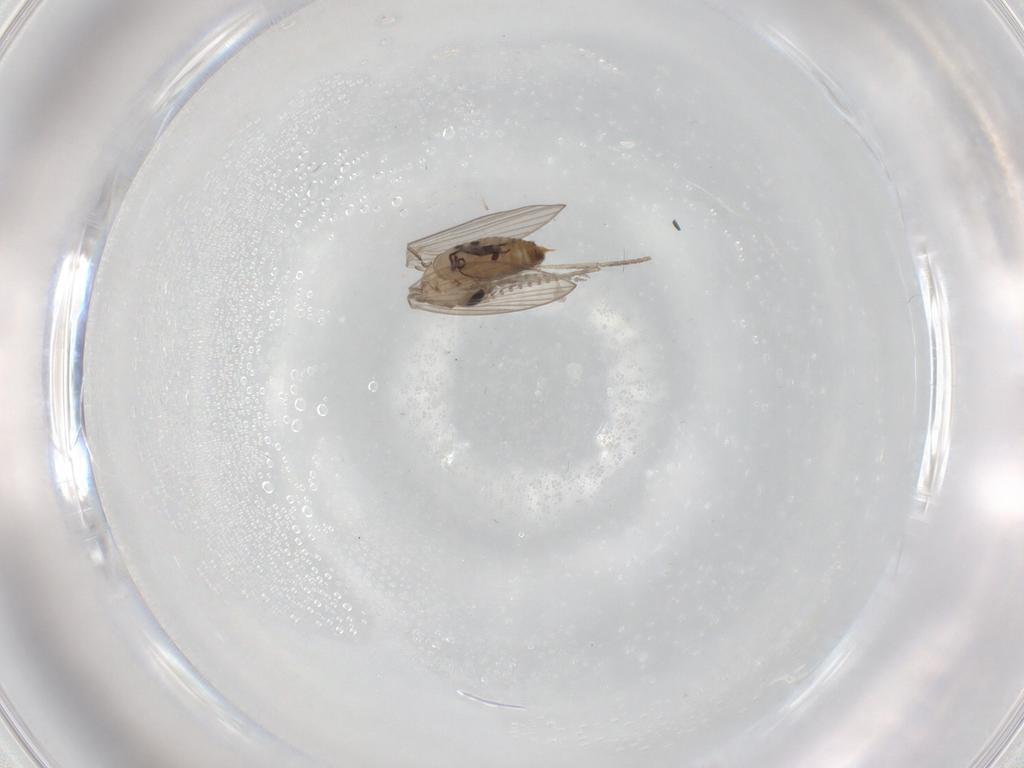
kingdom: Animalia
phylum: Arthropoda
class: Insecta
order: Diptera
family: Psychodidae
